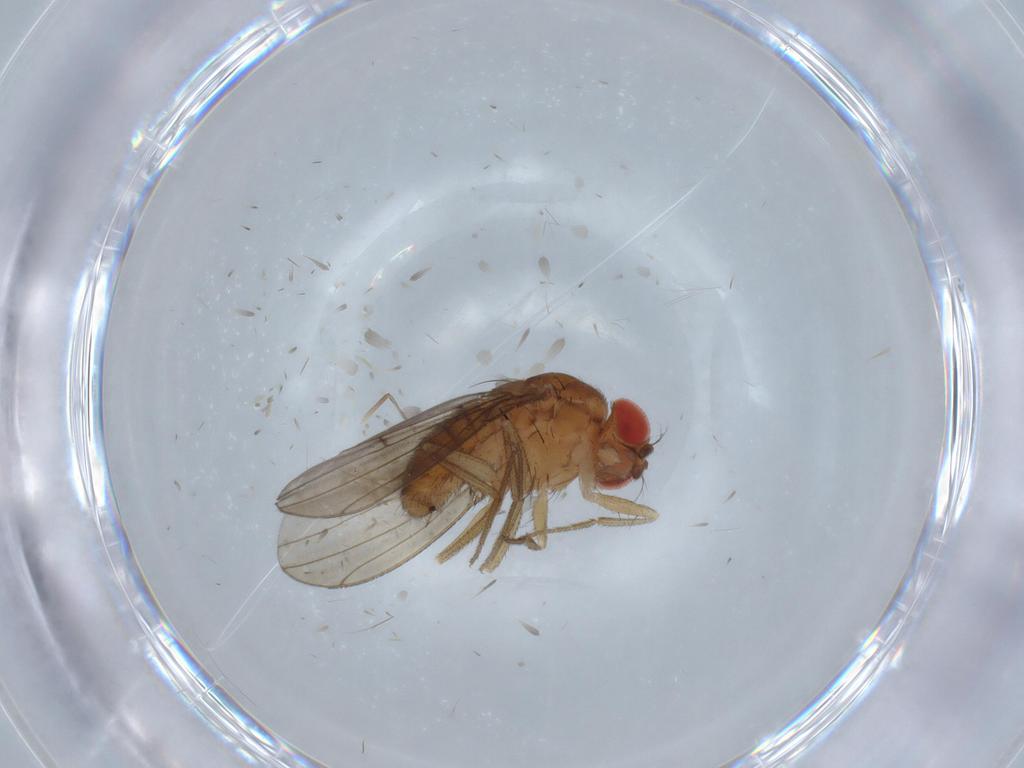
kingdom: Animalia
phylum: Arthropoda
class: Insecta
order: Diptera
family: Drosophilidae
